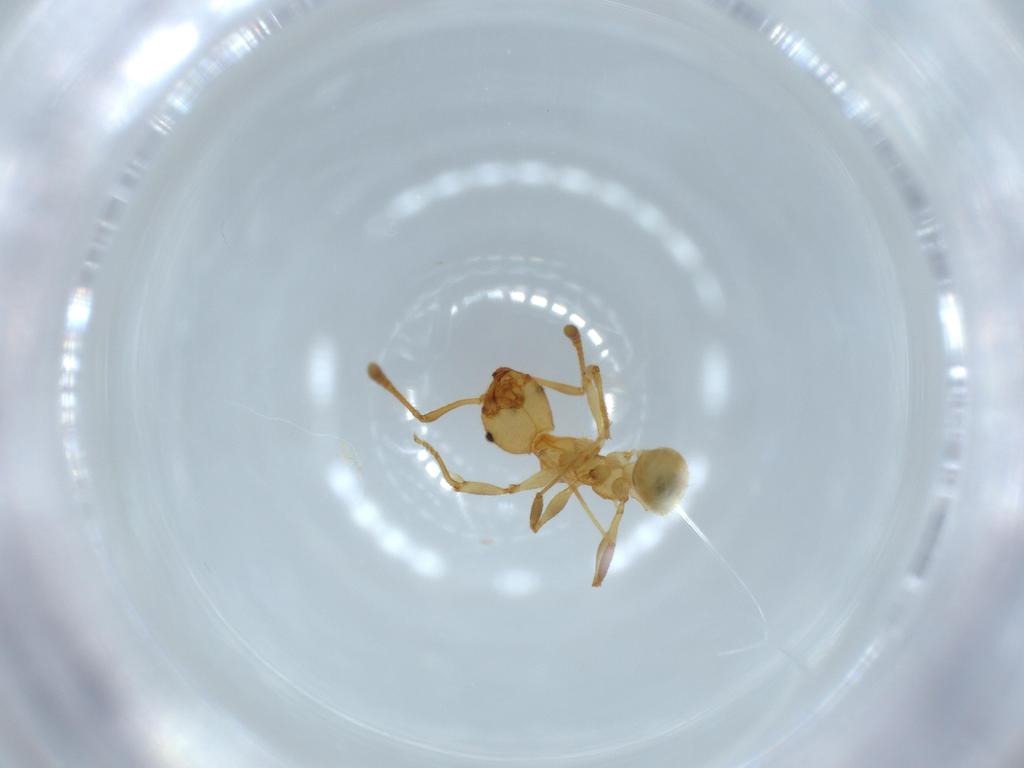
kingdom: Animalia
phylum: Arthropoda
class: Insecta
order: Hymenoptera
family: Formicidae
